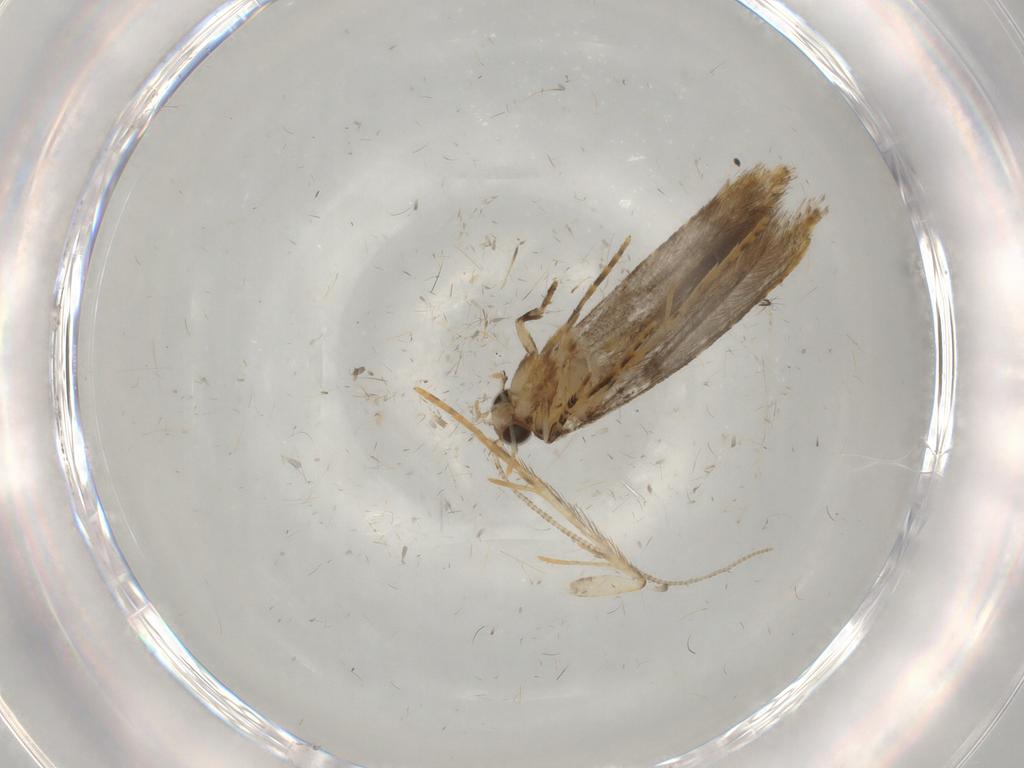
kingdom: Animalia
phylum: Arthropoda
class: Insecta
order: Lepidoptera
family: Tineidae
